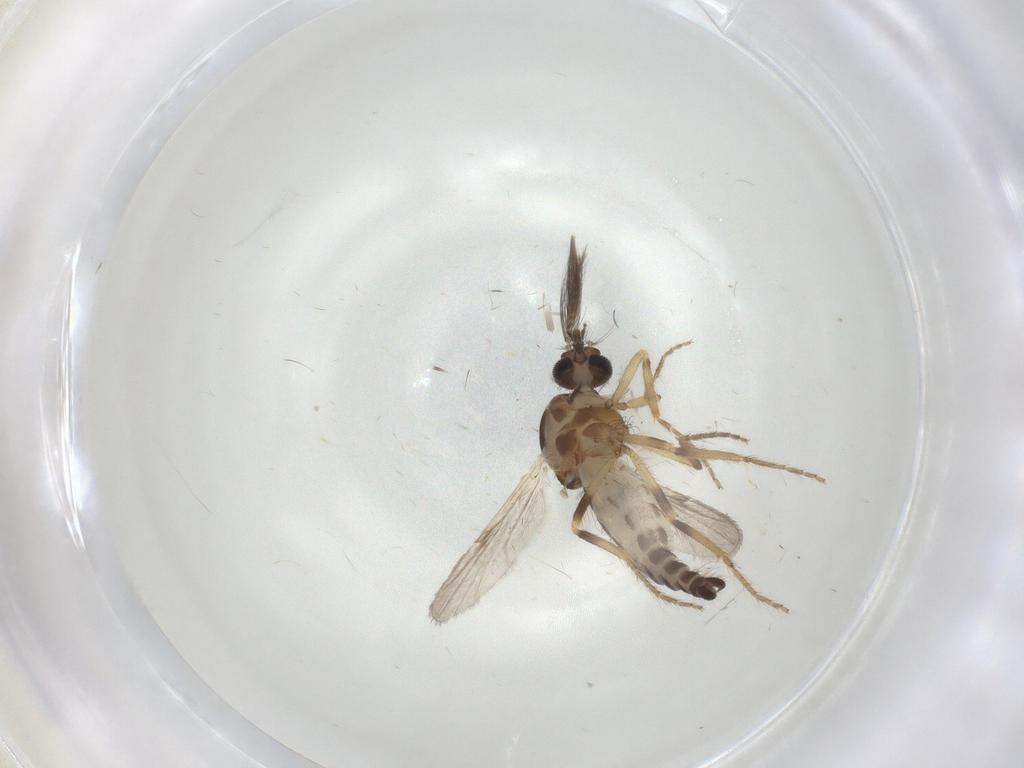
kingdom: Animalia
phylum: Arthropoda
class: Insecta
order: Diptera
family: Ceratopogonidae
